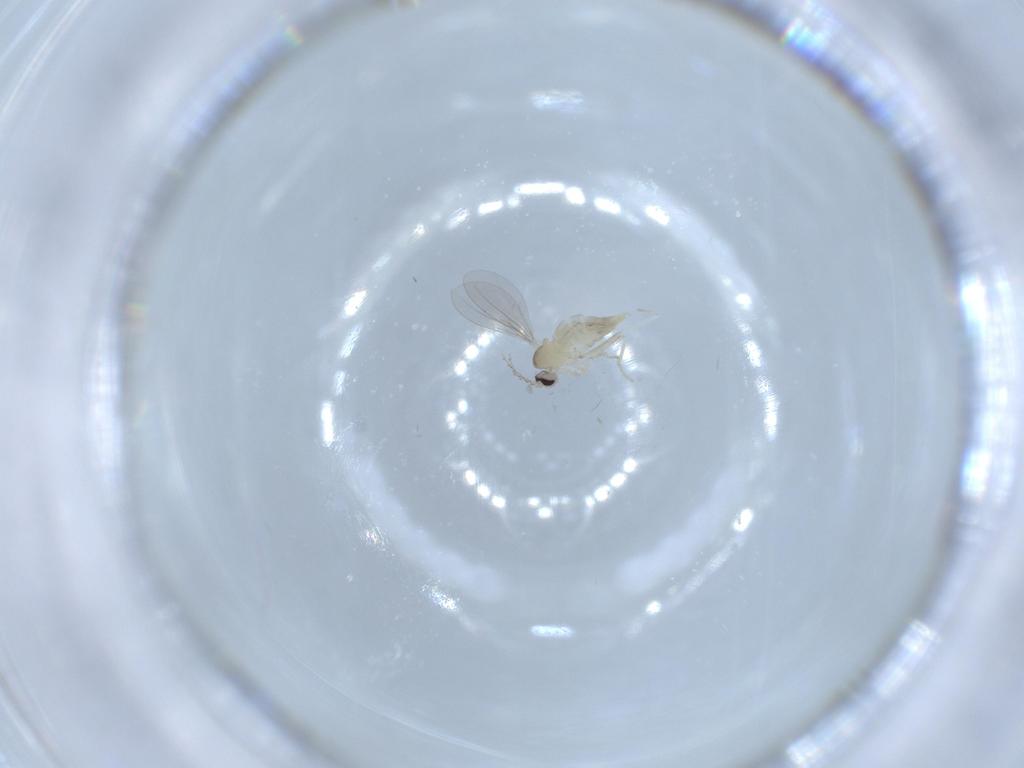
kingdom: Animalia
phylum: Arthropoda
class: Insecta
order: Diptera
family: Cecidomyiidae
